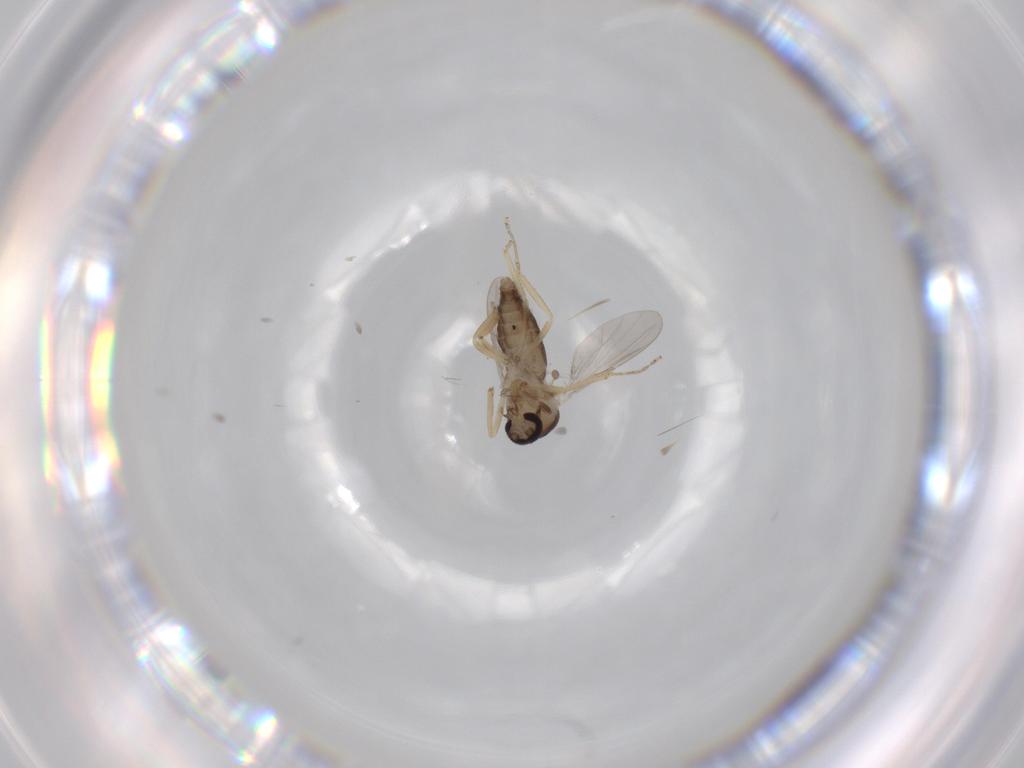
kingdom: Animalia
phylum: Arthropoda
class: Insecta
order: Diptera
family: Ceratopogonidae
